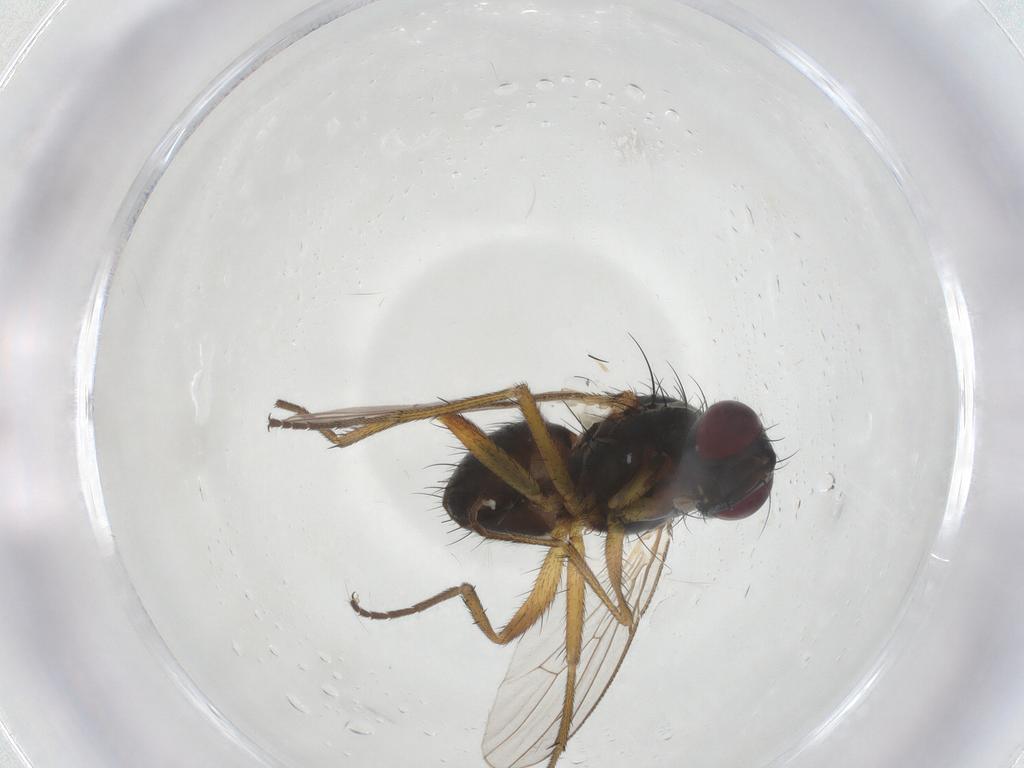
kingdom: Animalia
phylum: Arthropoda
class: Insecta
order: Diptera
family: Muscidae
